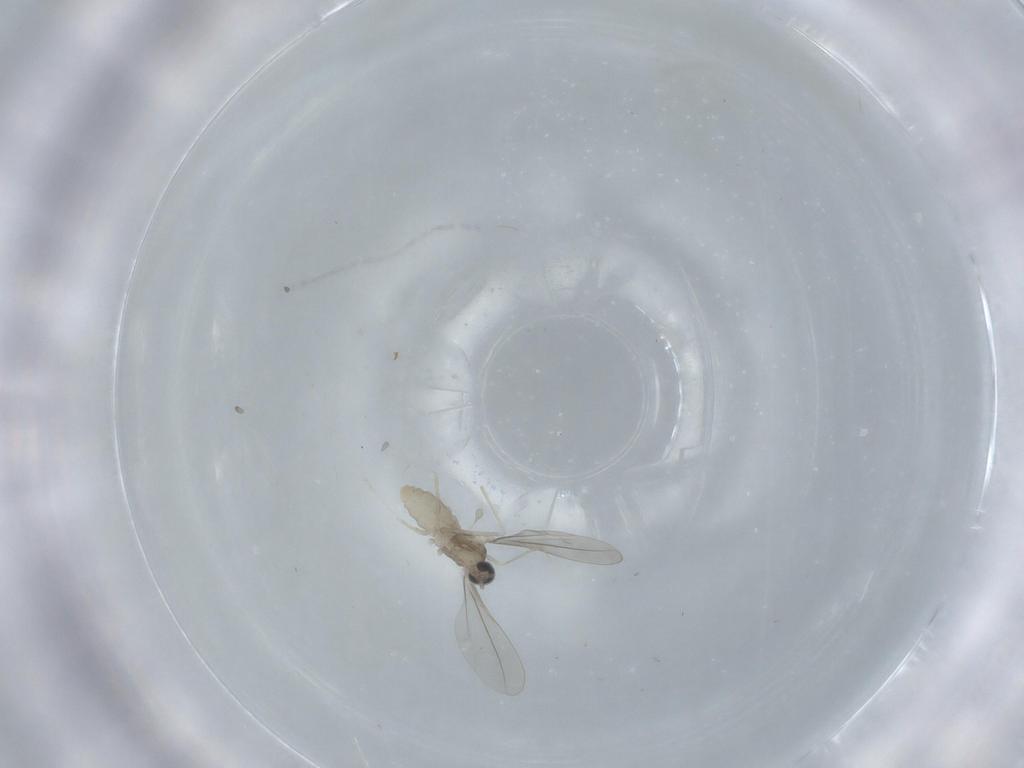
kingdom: Animalia
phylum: Arthropoda
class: Insecta
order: Diptera
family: Cecidomyiidae
